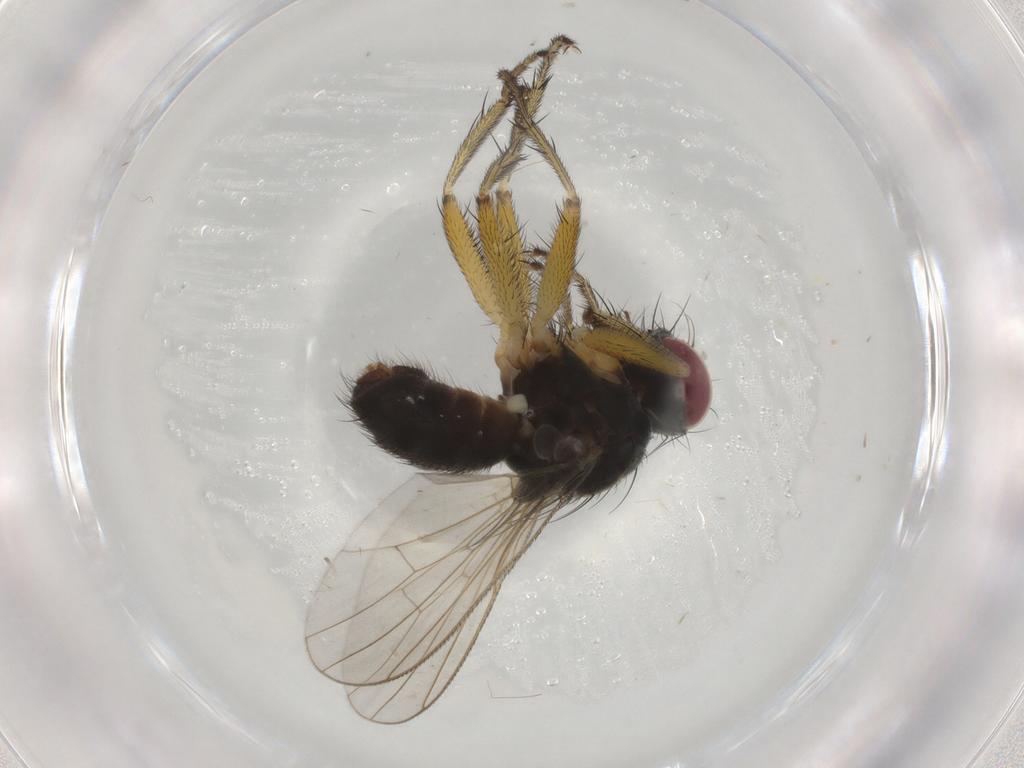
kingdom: Animalia
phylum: Arthropoda
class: Insecta
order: Diptera
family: Muscidae
